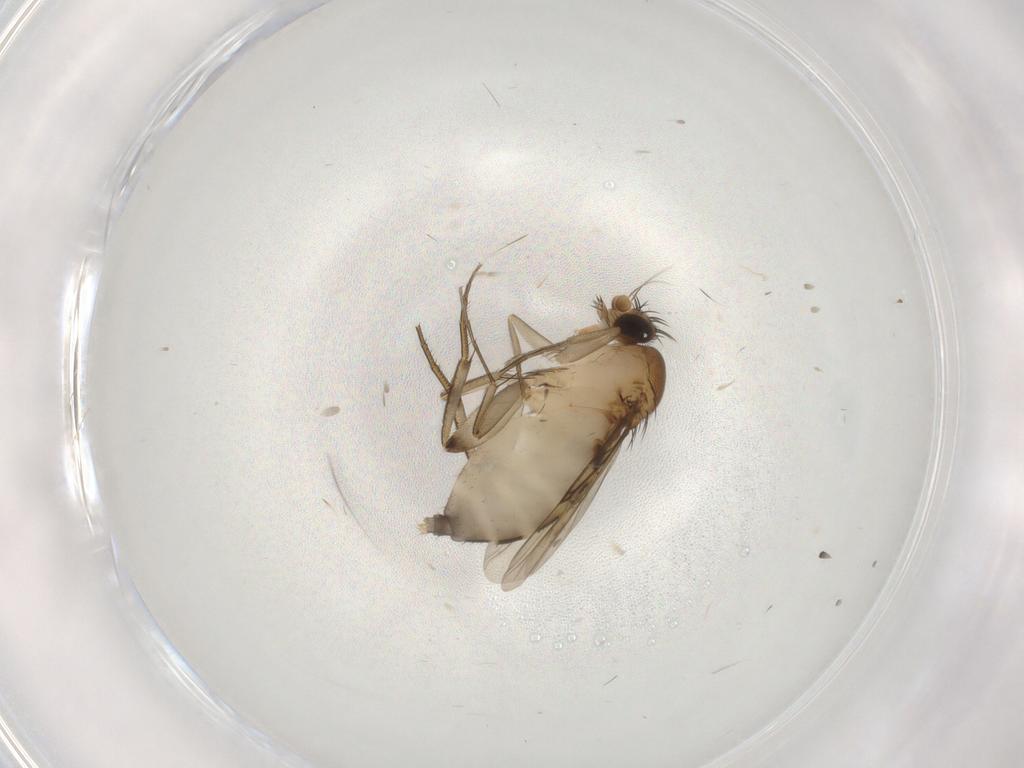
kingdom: Animalia
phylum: Arthropoda
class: Insecta
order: Diptera
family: Phoridae
